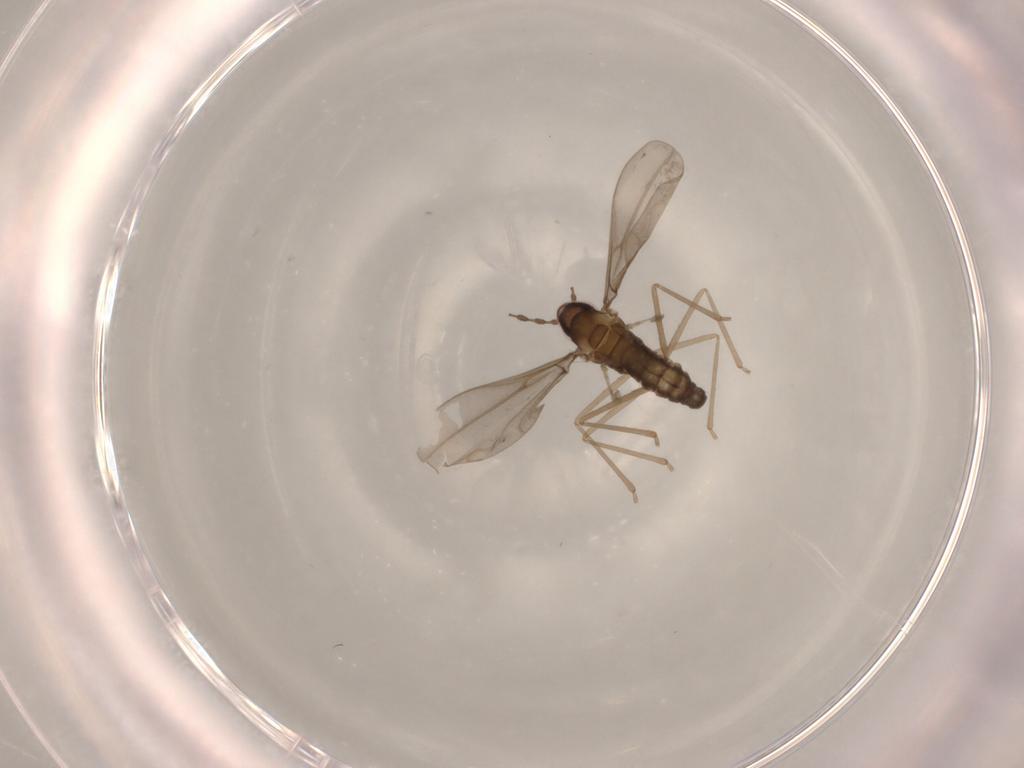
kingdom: Animalia
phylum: Arthropoda
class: Insecta
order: Diptera
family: Cecidomyiidae
